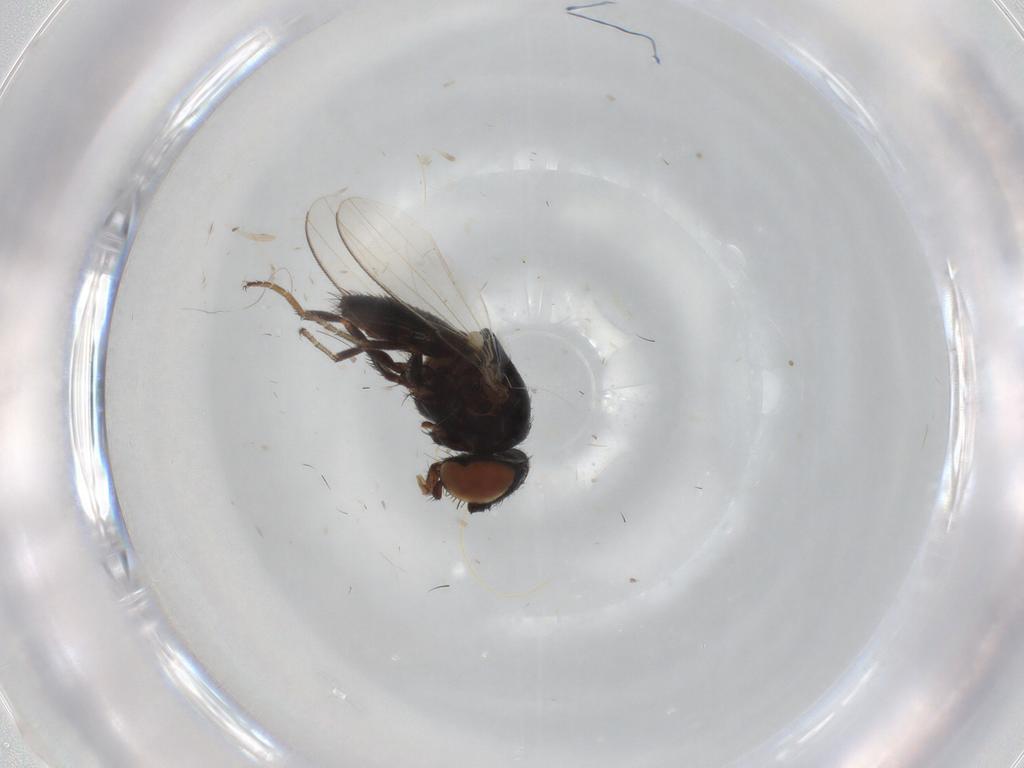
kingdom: Animalia
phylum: Arthropoda
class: Insecta
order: Diptera
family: Milichiidae
